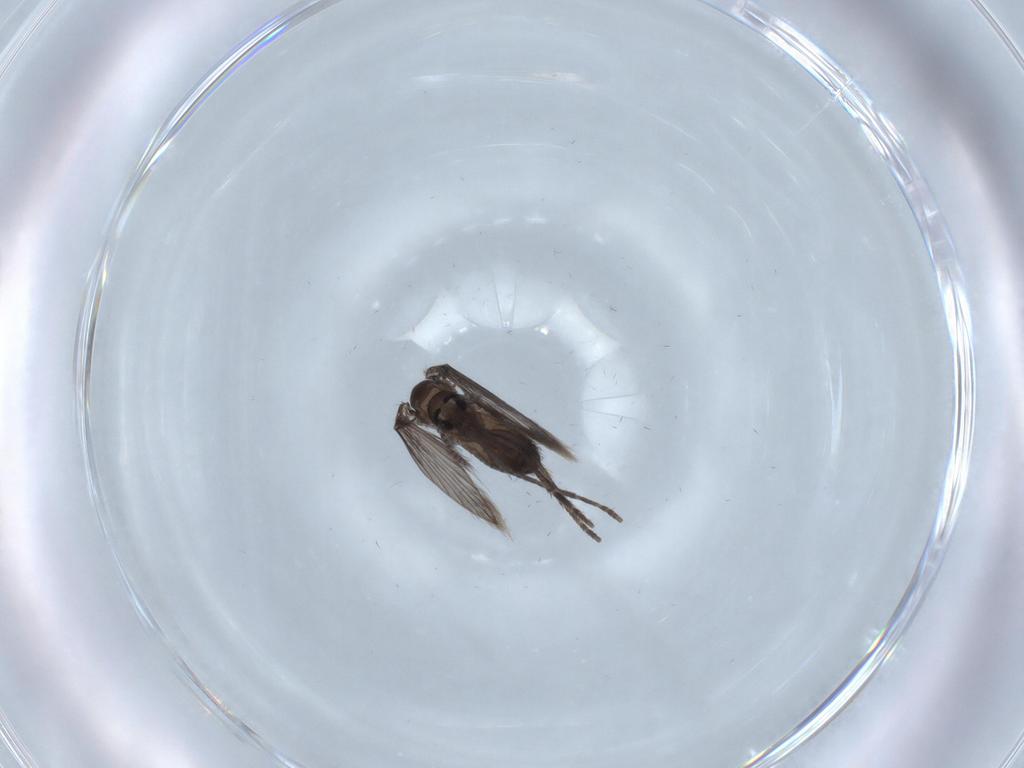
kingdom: Animalia
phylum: Arthropoda
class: Insecta
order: Diptera
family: Psychodidae
